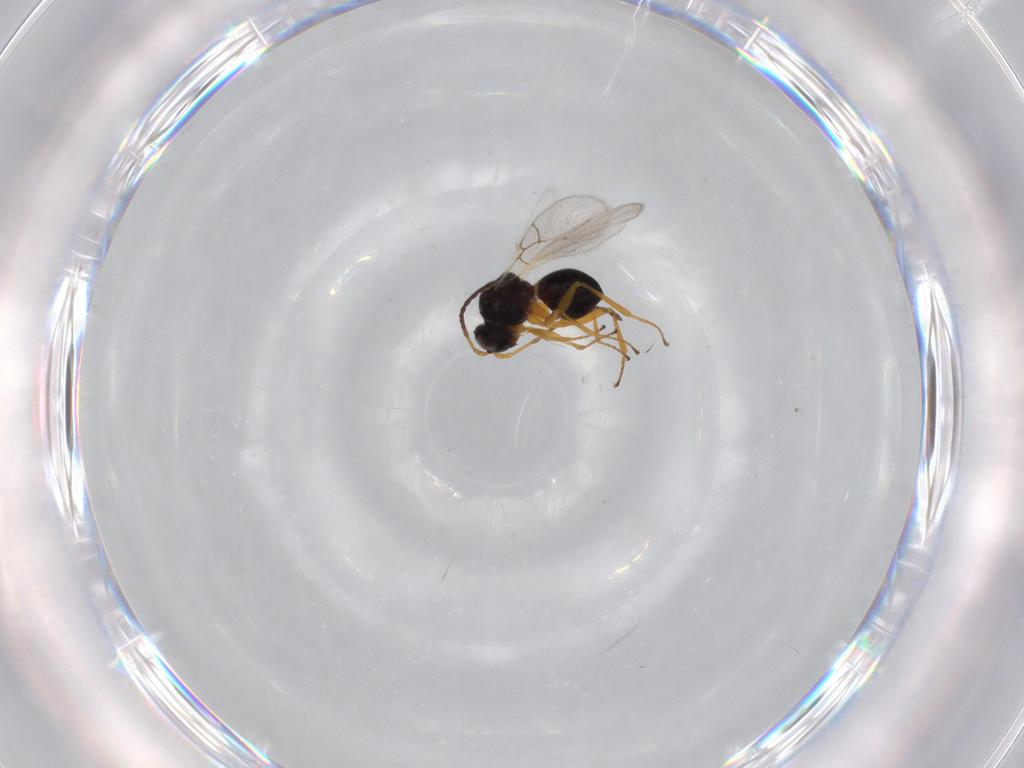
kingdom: Animalia
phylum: Arthropoda
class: Insecta
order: Hymenoptera
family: Figitidae
